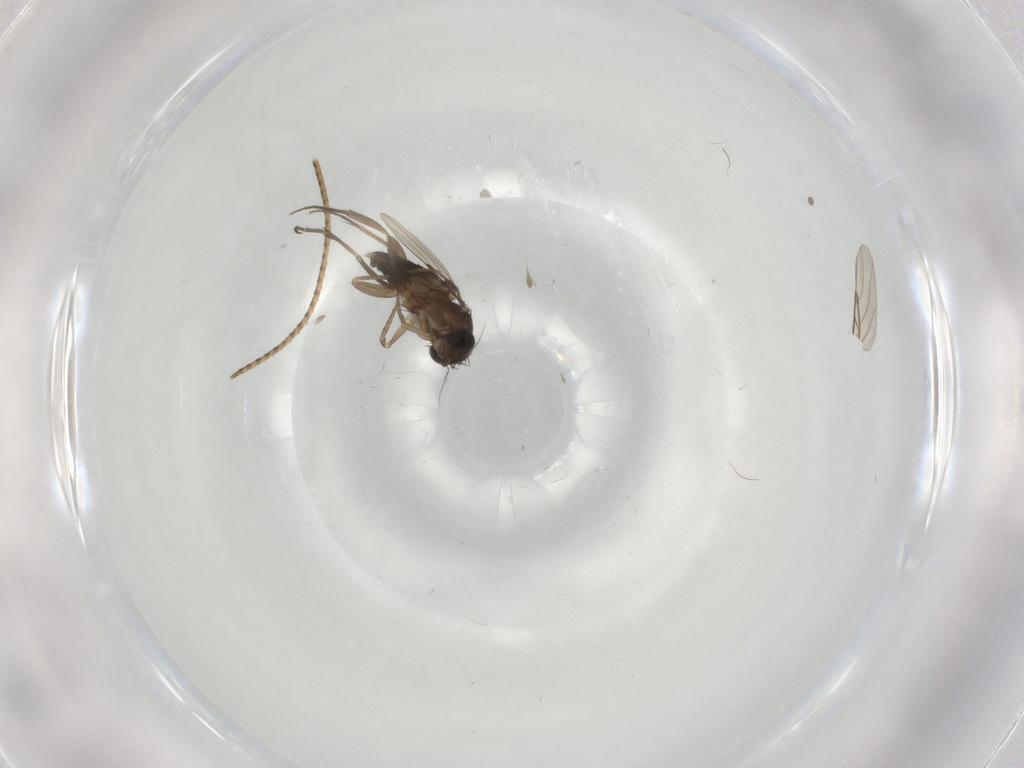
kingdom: Animalia
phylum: Arthropoda
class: Insecta
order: Diptera
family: Phoridae
